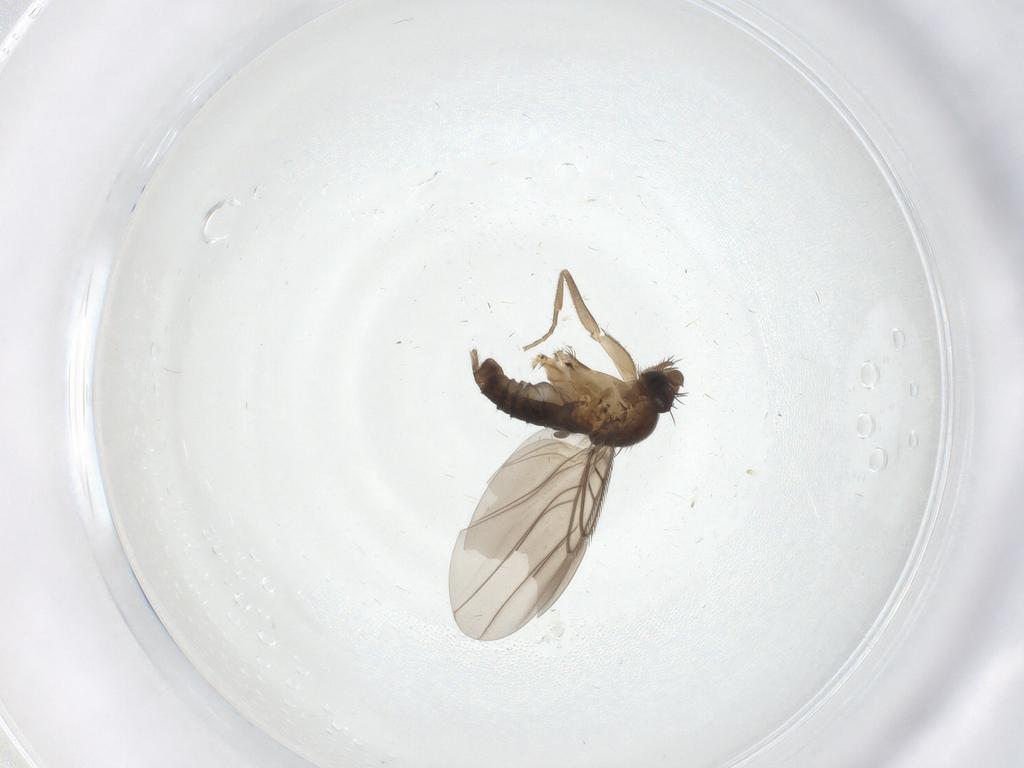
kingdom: Animalia
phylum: Arthropoda
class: Insecta
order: Diptera
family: Phoridae
